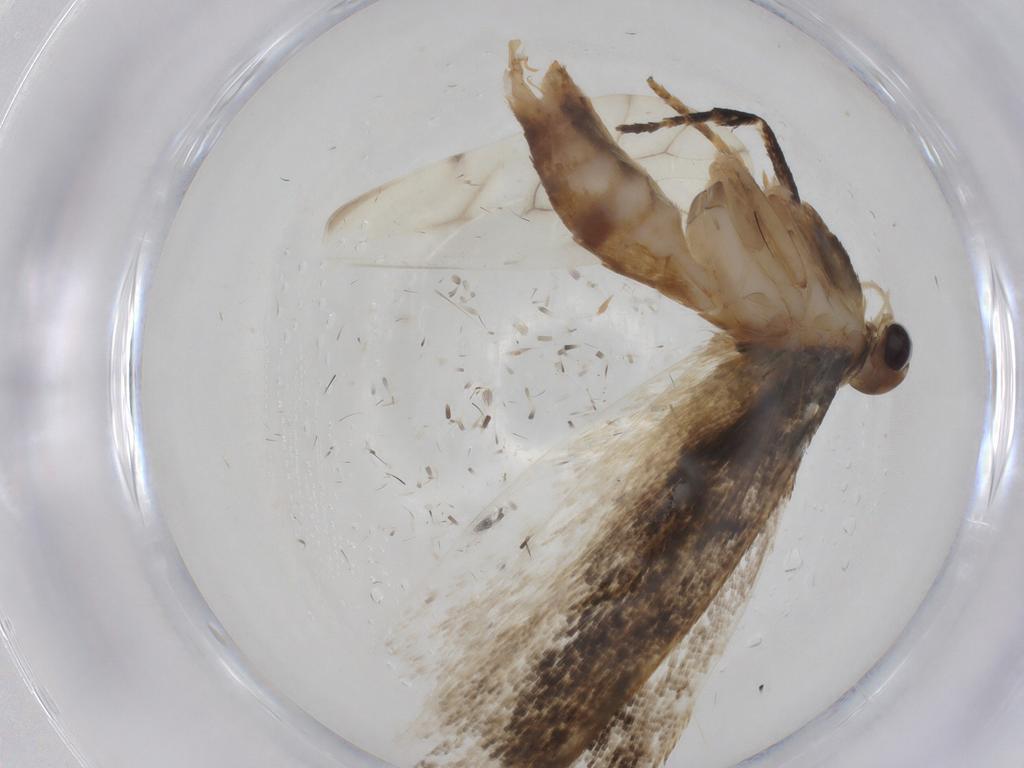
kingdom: Animalia
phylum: Arthropoda
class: Insecta
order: Lepidoptera
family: Gelechiidae
